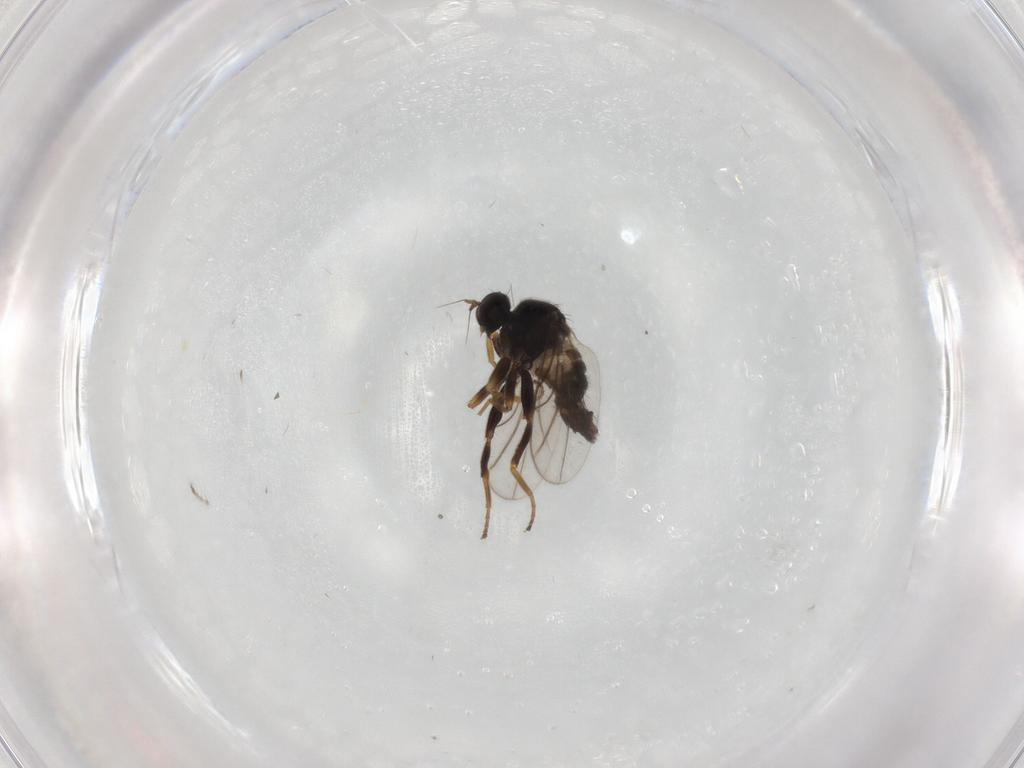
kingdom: Animalia
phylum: Arthropoda
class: Insecta
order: Diptera
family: Hybotidae
